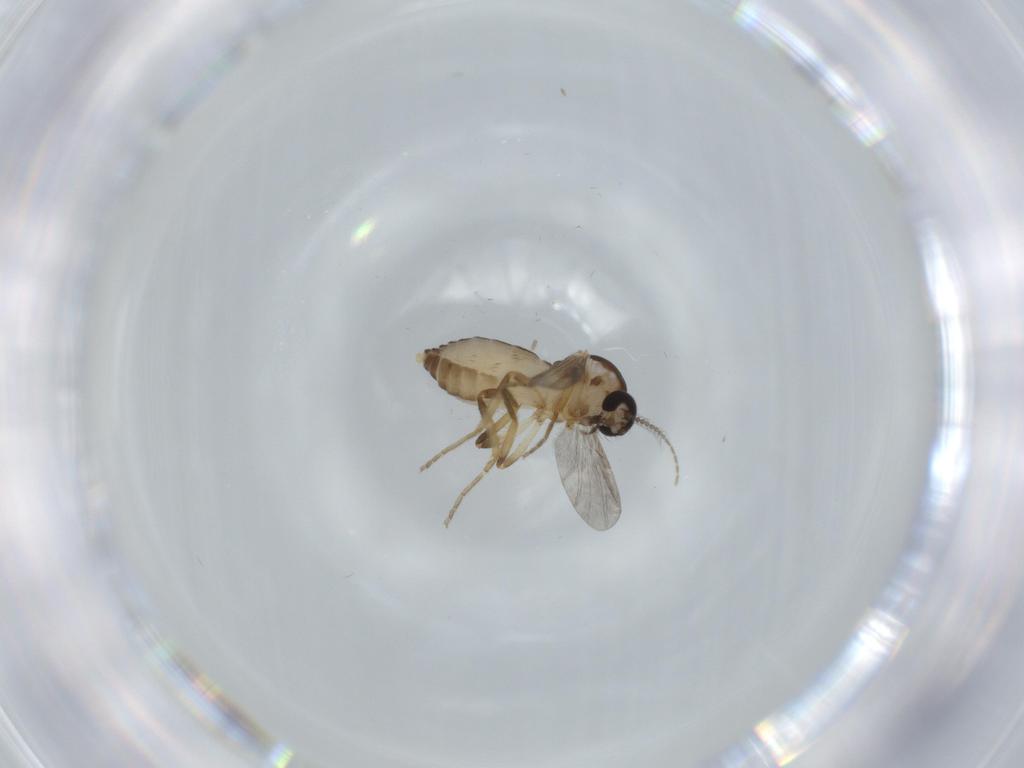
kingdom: Animalia
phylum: Arthropoda
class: Insecta
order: Diptera
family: Ceratopogonidae
